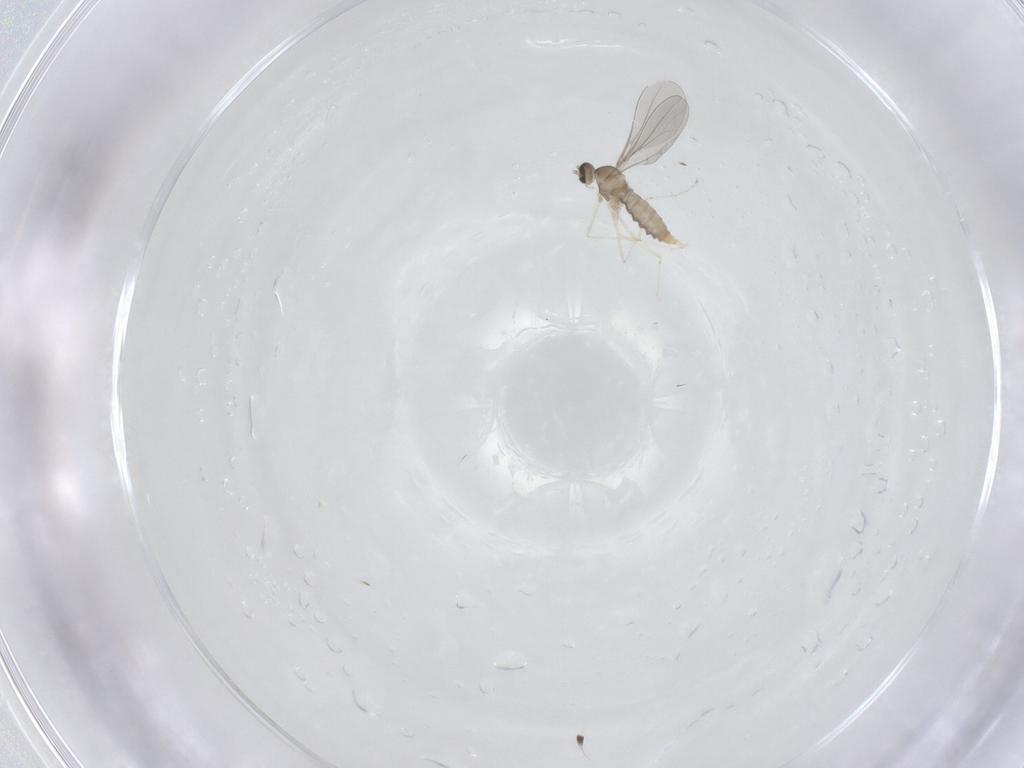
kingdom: Animalia
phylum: Arthropoda
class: Insecta
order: Diptera
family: Cecidomyiidae
